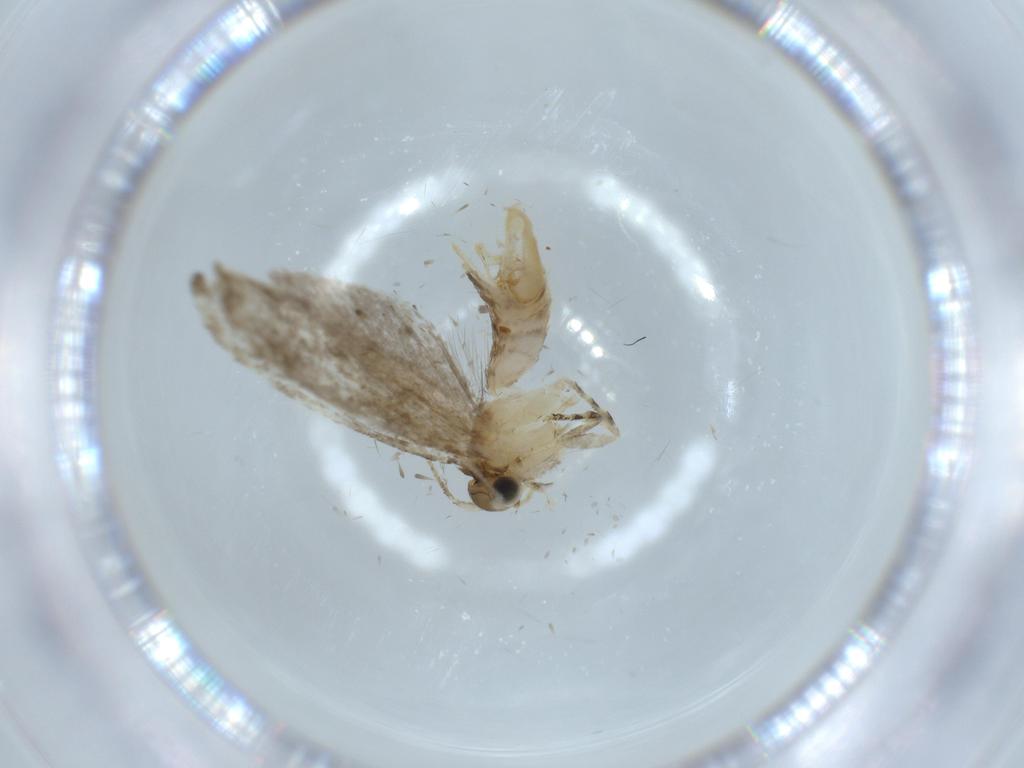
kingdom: Animalia
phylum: Arthropoda
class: Insecta
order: Lepidoptera
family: Tineidae
